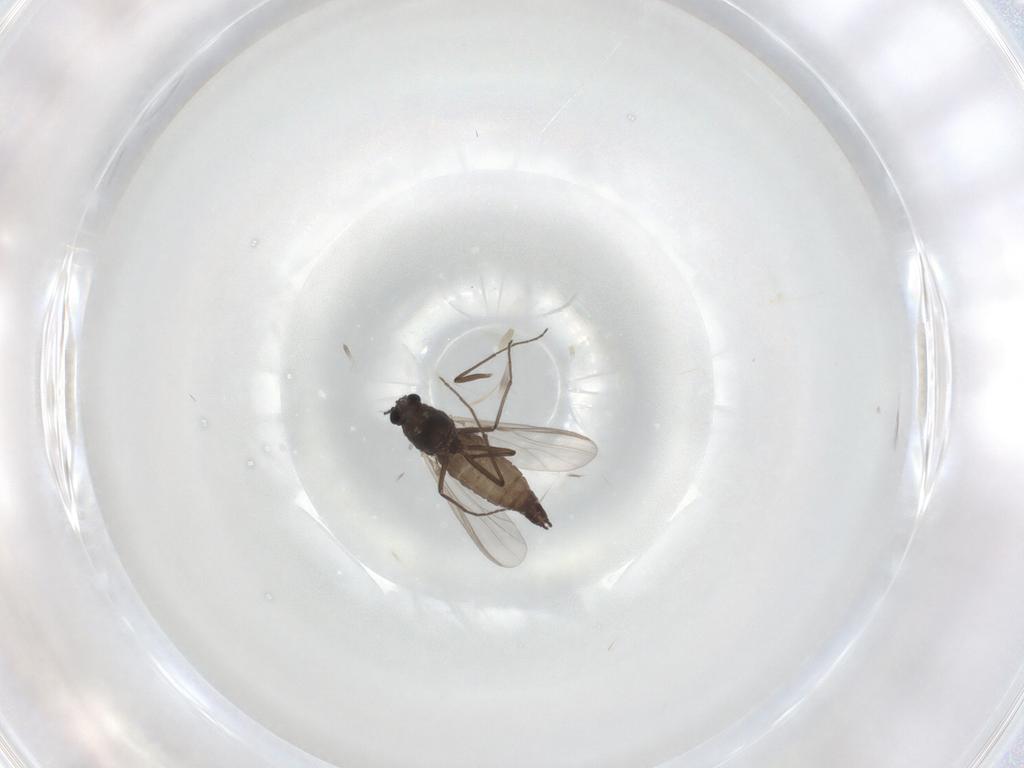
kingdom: Animalia
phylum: Arthropoda
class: Insecta
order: Diptera
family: Chironomidae
